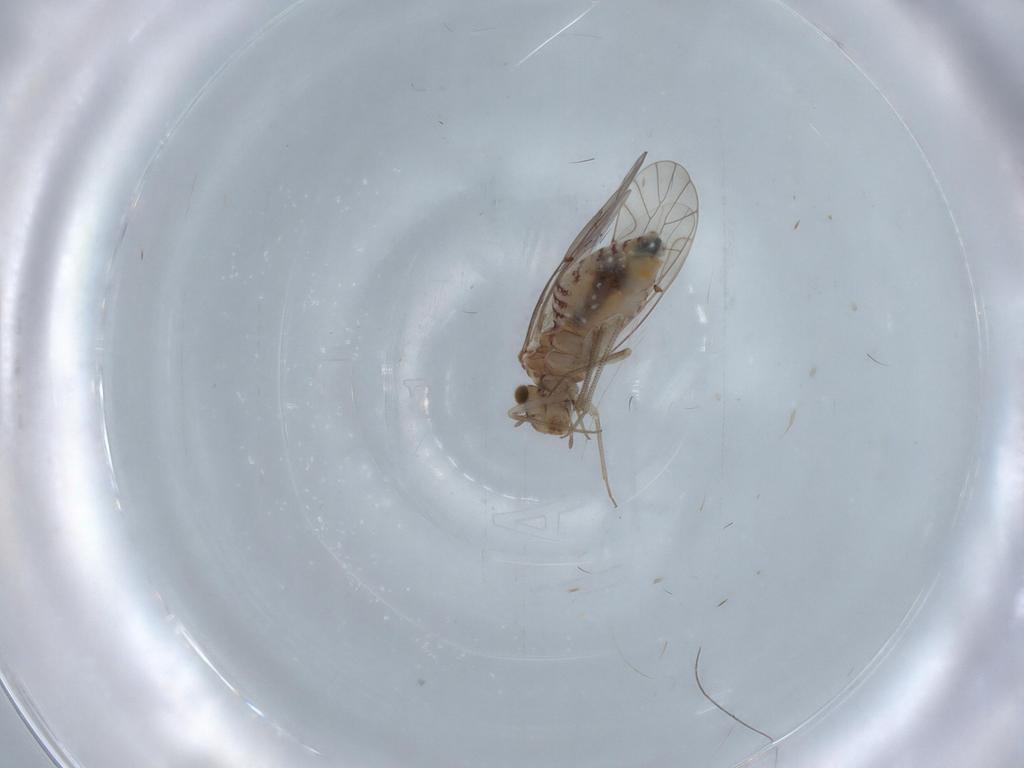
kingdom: Animalia
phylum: Arthropoda
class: Insecta
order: Psocodea
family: Lachesillidae
